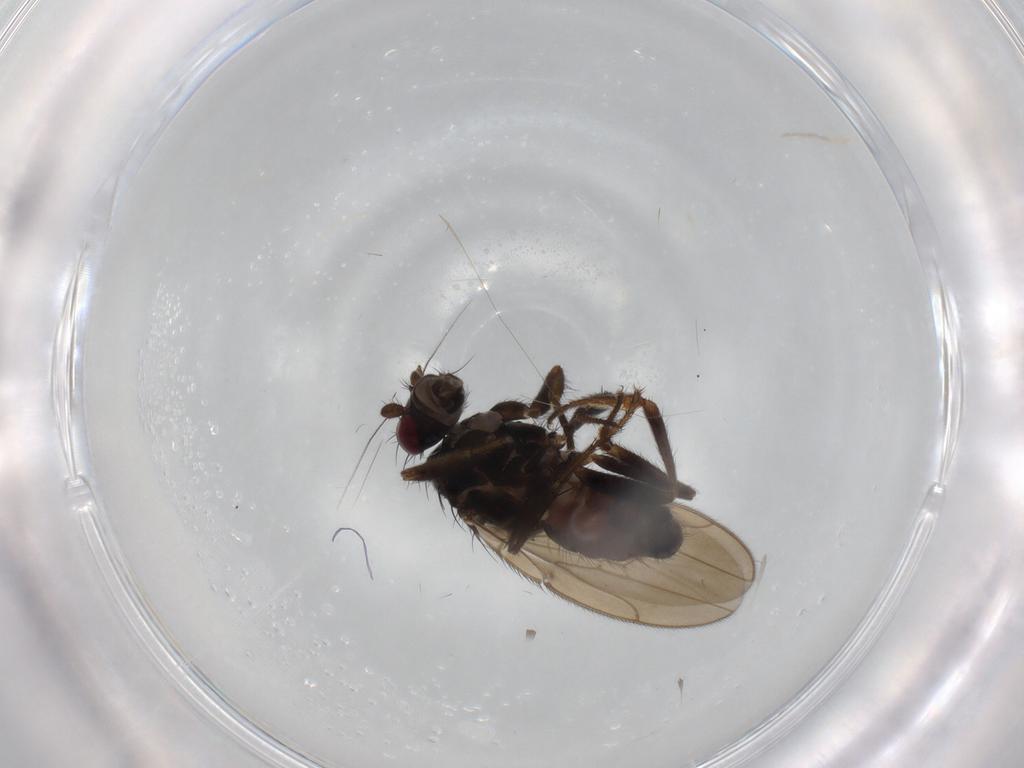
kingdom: Animalia
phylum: Arthropoda
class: Insecta
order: Diptera
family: Sphaeroceridae
